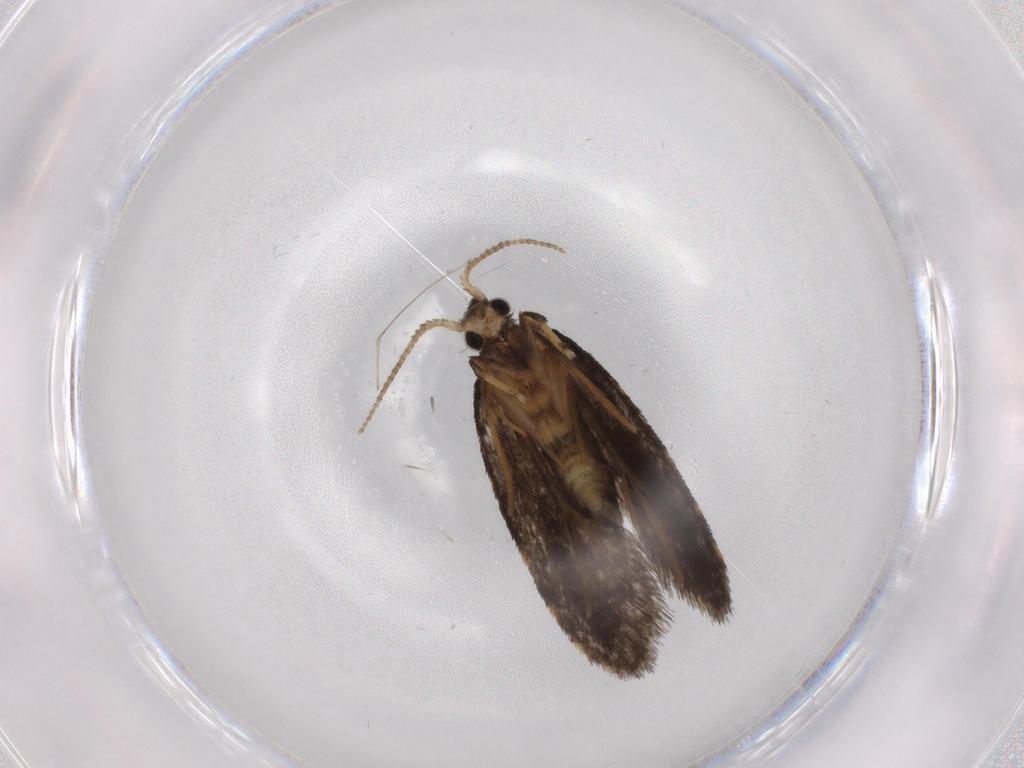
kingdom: Animalia
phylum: Arthropoda
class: Insecta
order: Lepidoptera
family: Psychidae
